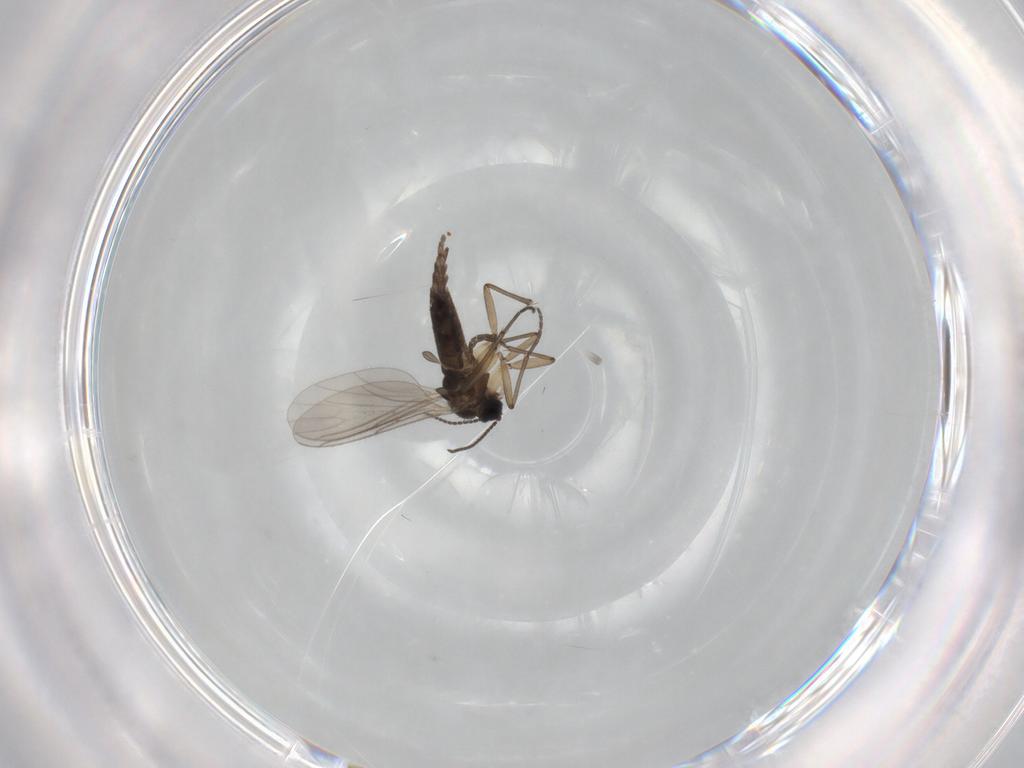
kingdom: Animalia
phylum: Arthropoda
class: Insecta
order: Diptera
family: Sciaridae
